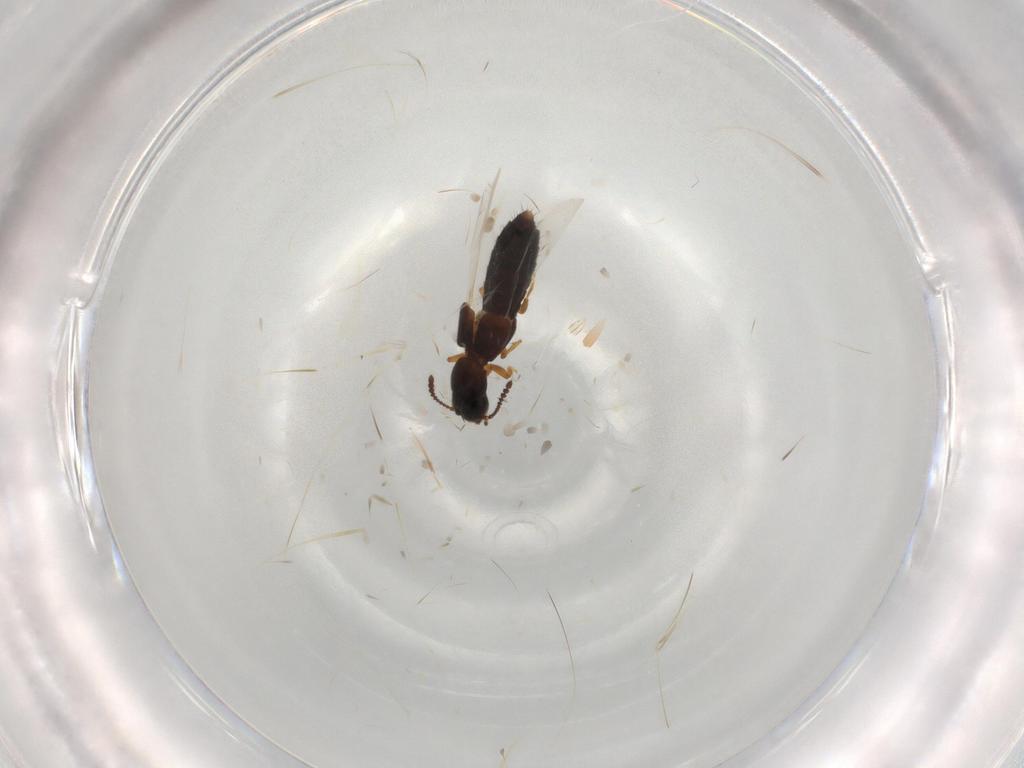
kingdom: Animalia
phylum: Arthropoda
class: Insecta
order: Coleoptera
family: Staphylinidae
